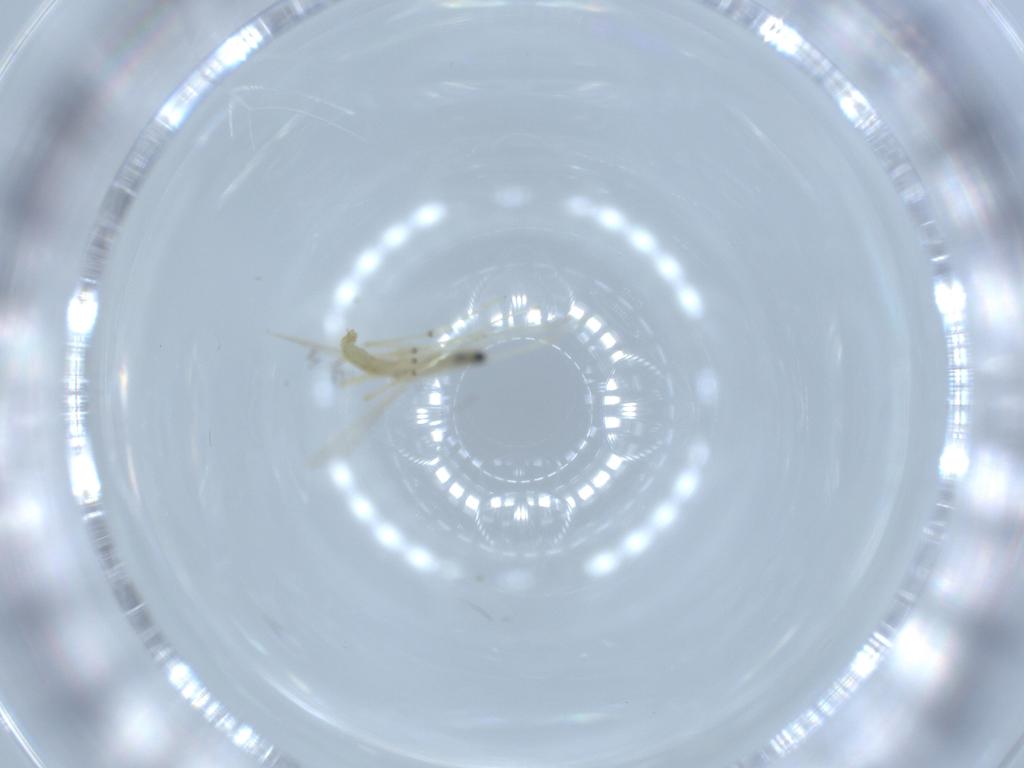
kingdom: Animalia
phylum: Arthropoda
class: Insecta
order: Diptera
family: Chironomidae
